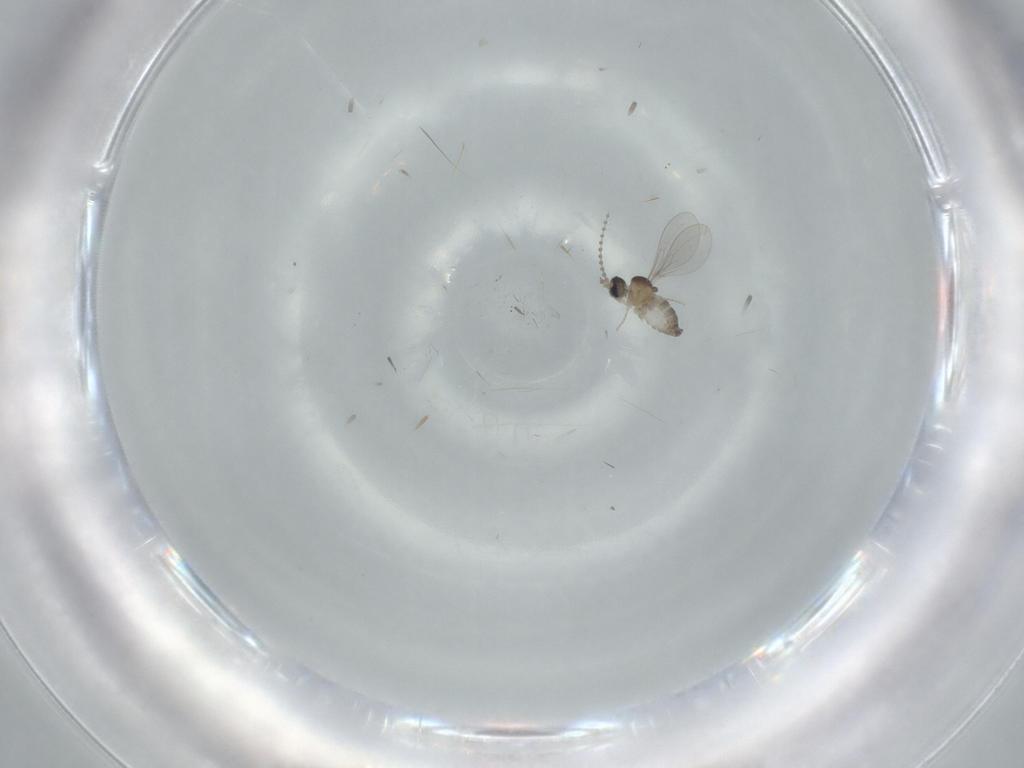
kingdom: Animalia
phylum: Arthropoda
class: Insecta
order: Diptera
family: Cecidomyiidae
